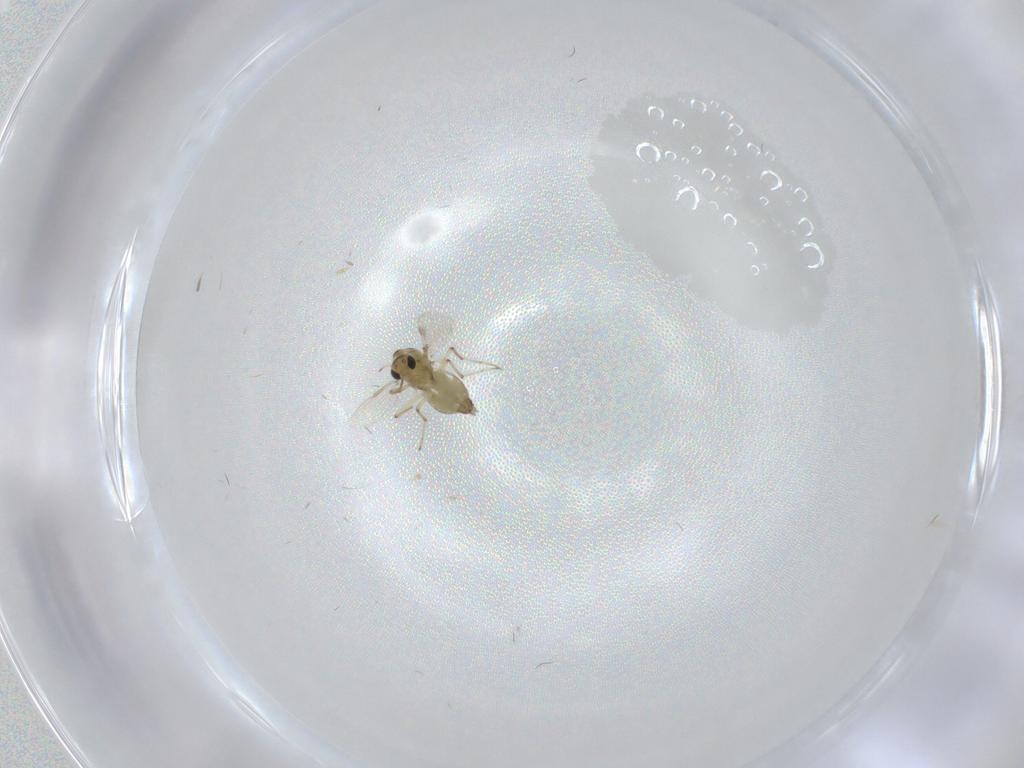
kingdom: Animalia
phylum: Arthropoda
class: Insecta
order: Diptera
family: Chironomidae
